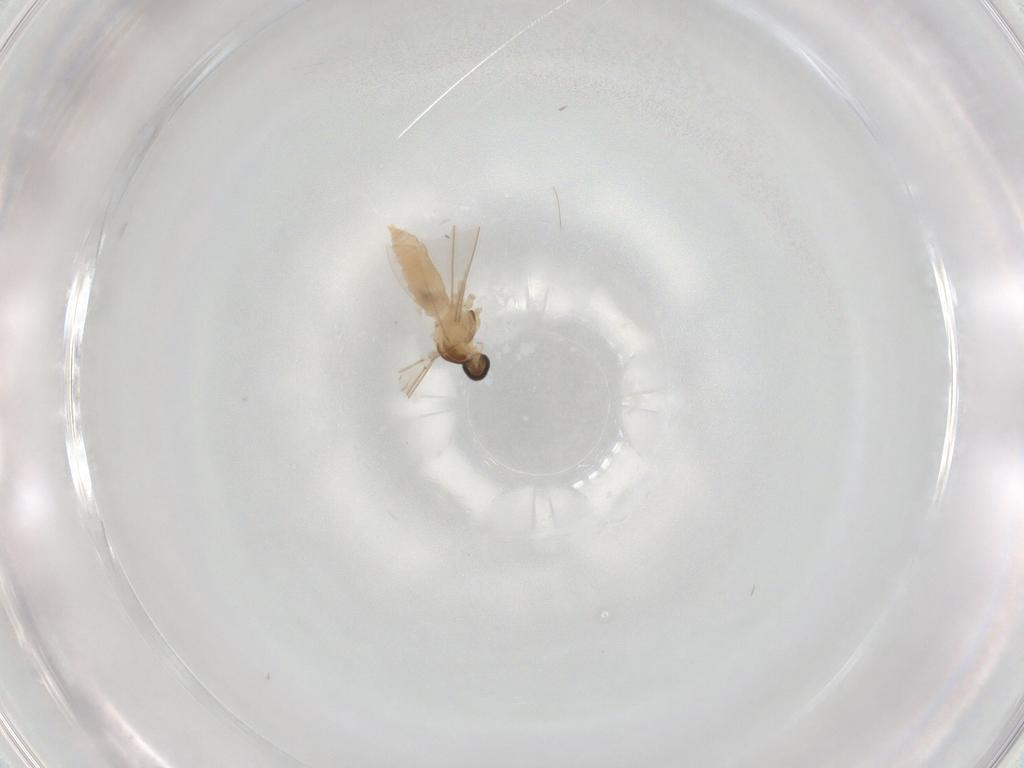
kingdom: Animalia
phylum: Arthropoda
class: Insecta
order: Diptera
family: Cecidomyiidae
